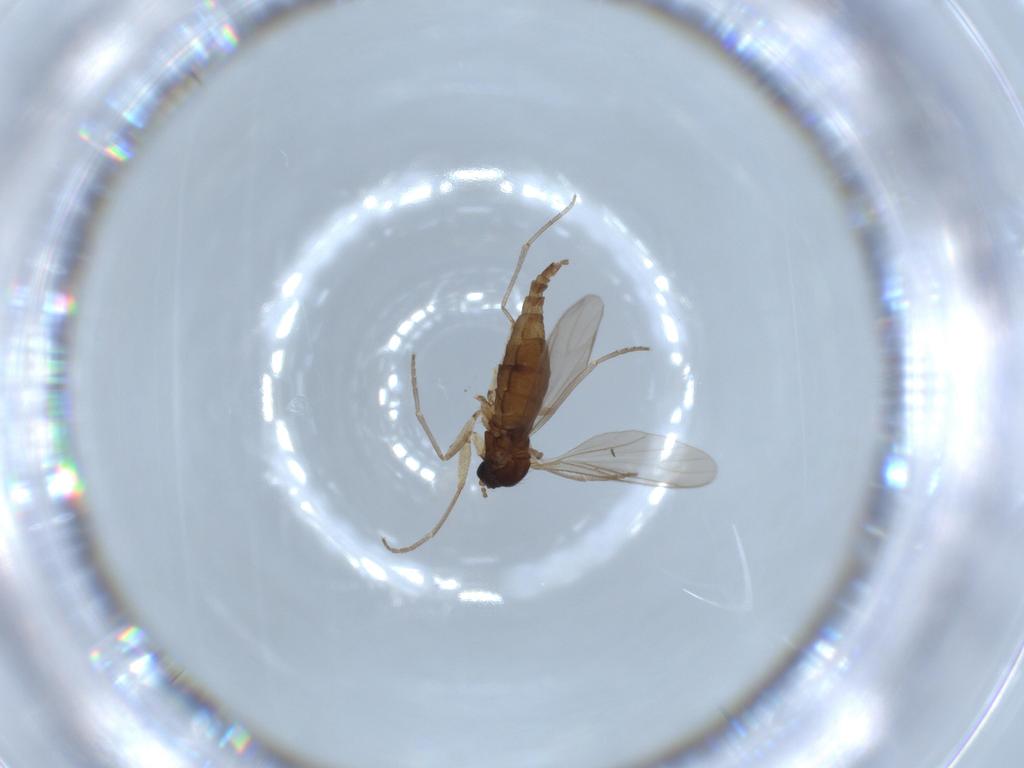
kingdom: Animalia
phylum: Arthropoda
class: Insecta
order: Diptera
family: Sciaridae
